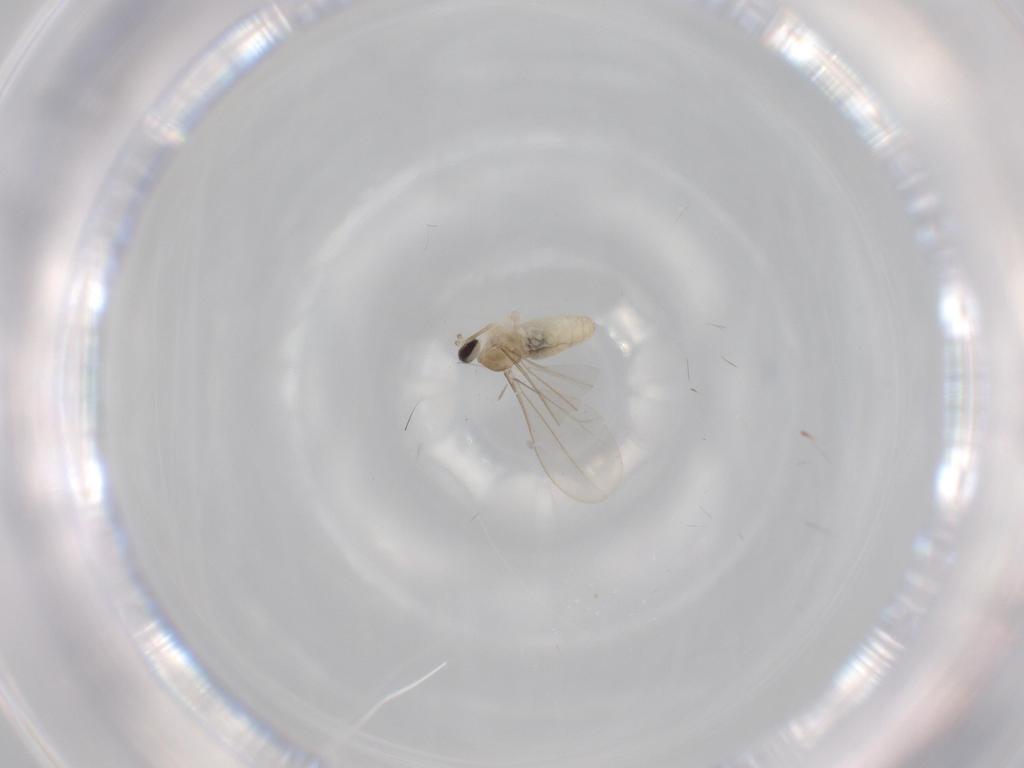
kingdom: Animalia
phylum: Arthropoda
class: Insecta
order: Diptera
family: Cecidomyiidae
